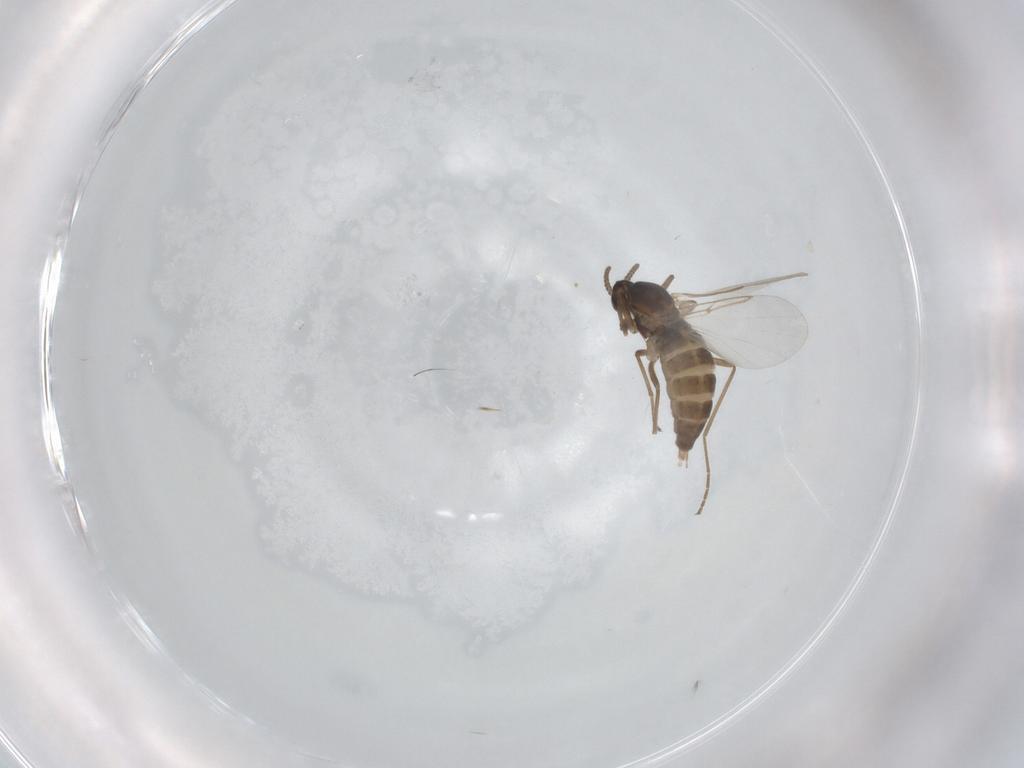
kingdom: Animalia
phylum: Arthropoda
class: Insecta
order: Diptera
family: Cecidomyiidae
